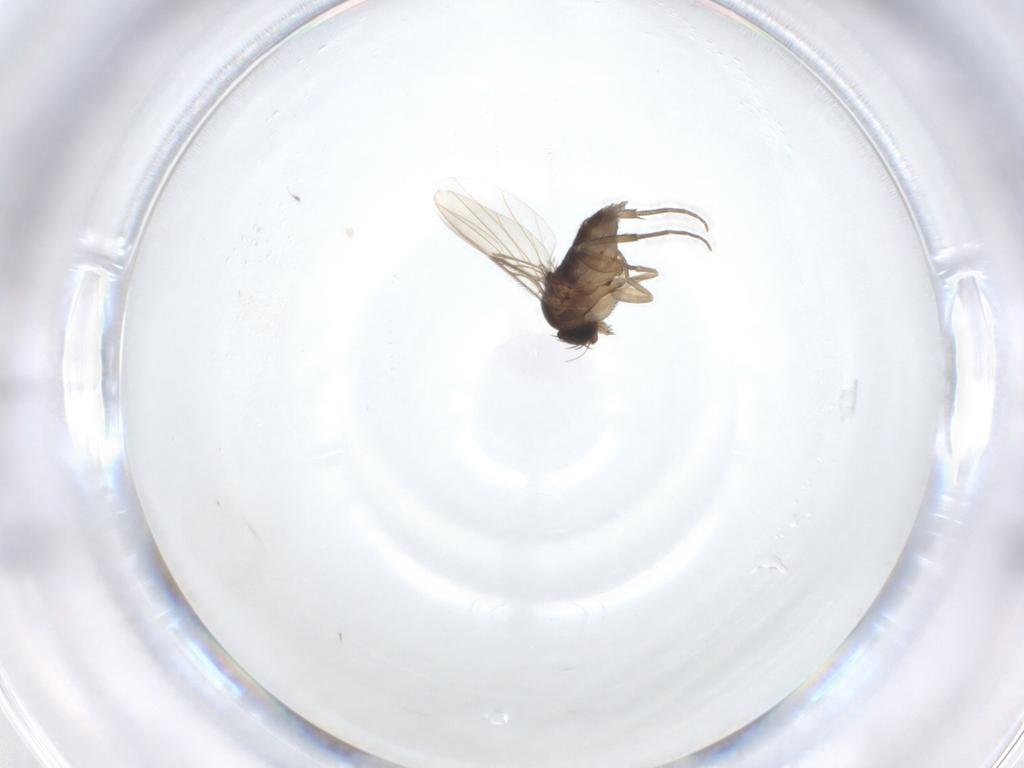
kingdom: Animalia
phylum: Arthropoda
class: Insecta
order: Diptera
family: Phoridae
